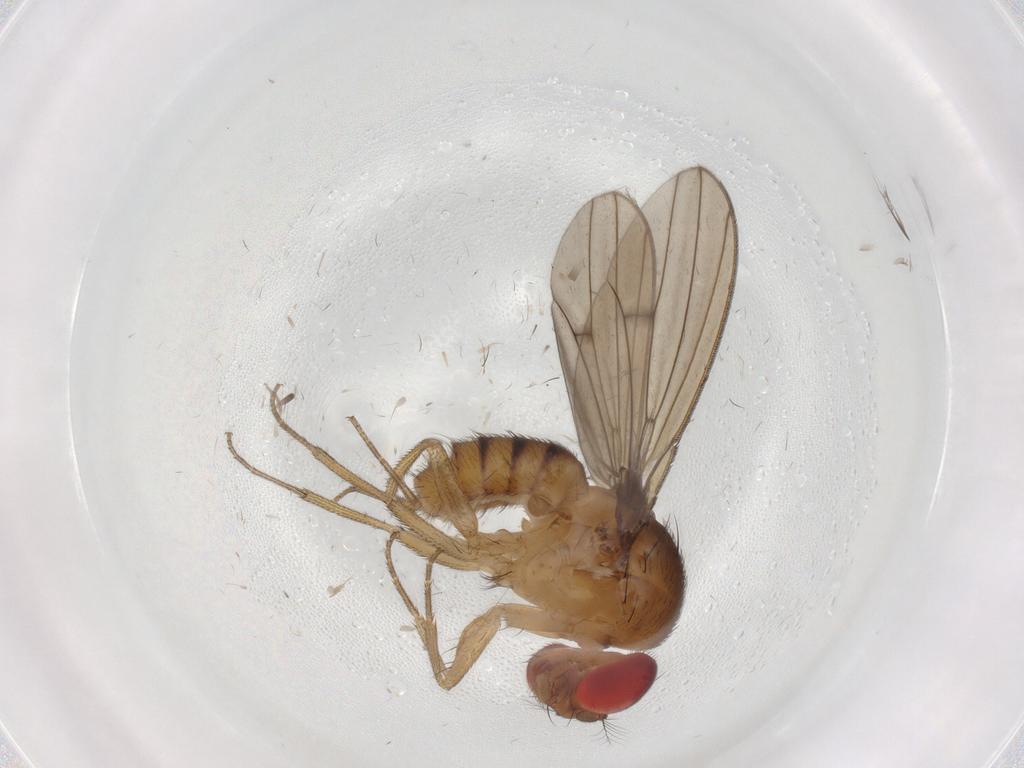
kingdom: Animalia
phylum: Arthropoda
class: Insecta
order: Diptera
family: Drosophilidae
